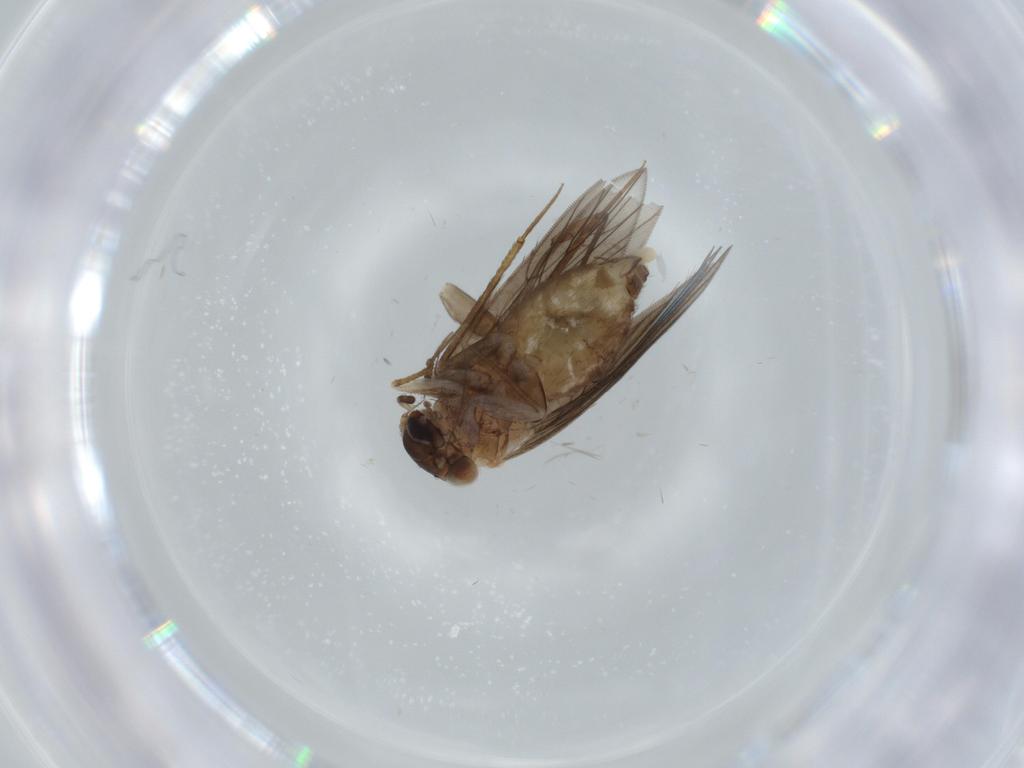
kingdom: Animalia
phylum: Arthropoda
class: Insecta
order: Psocodea
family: Lepidopsocidae
